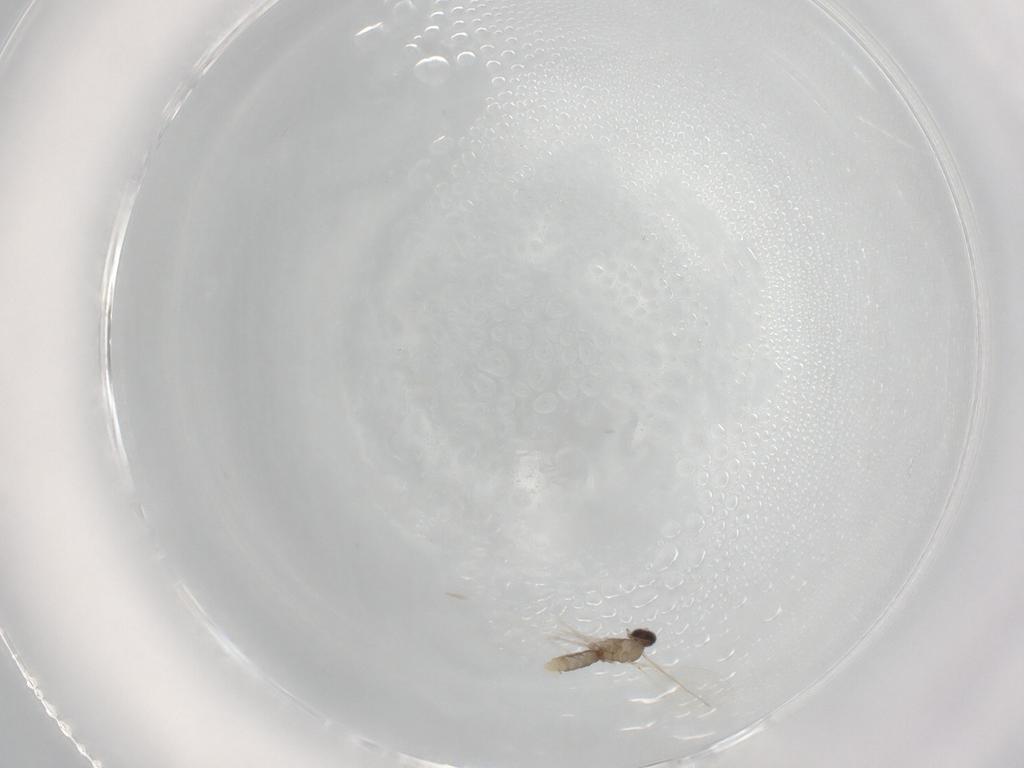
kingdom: Animalia
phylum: Arthropoda
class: Insecta
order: Diptera
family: Cecidomyiidae
